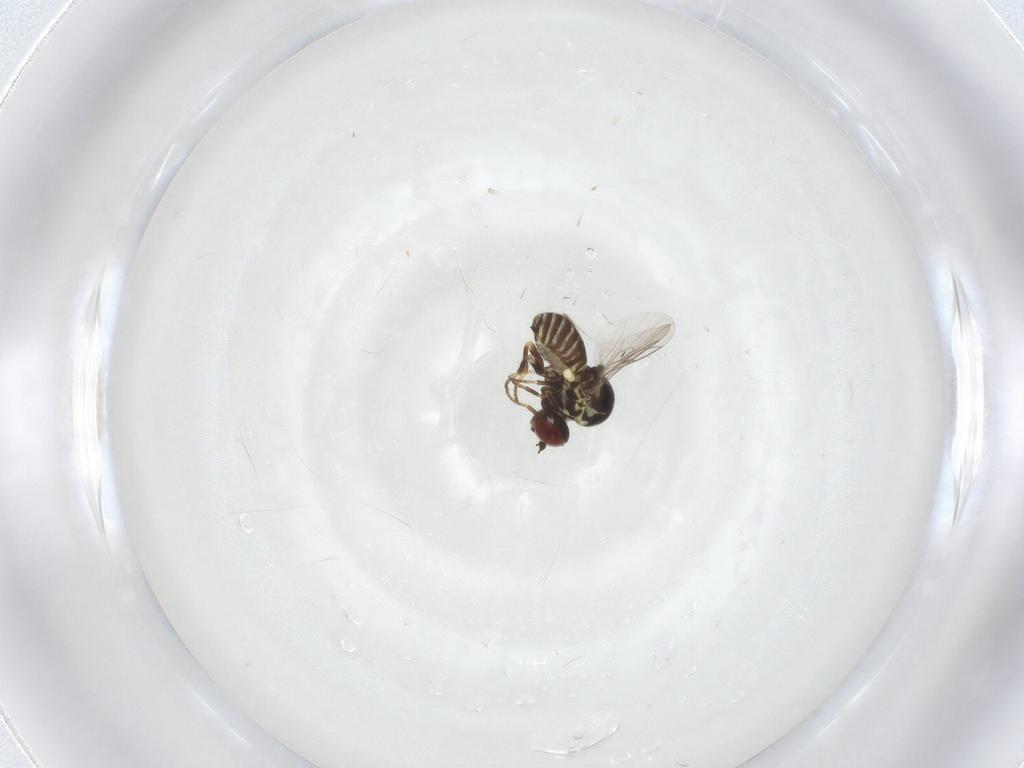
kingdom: Animalia
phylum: Arthropoda
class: Insecta
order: Diptera
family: Mythicomyiidae
